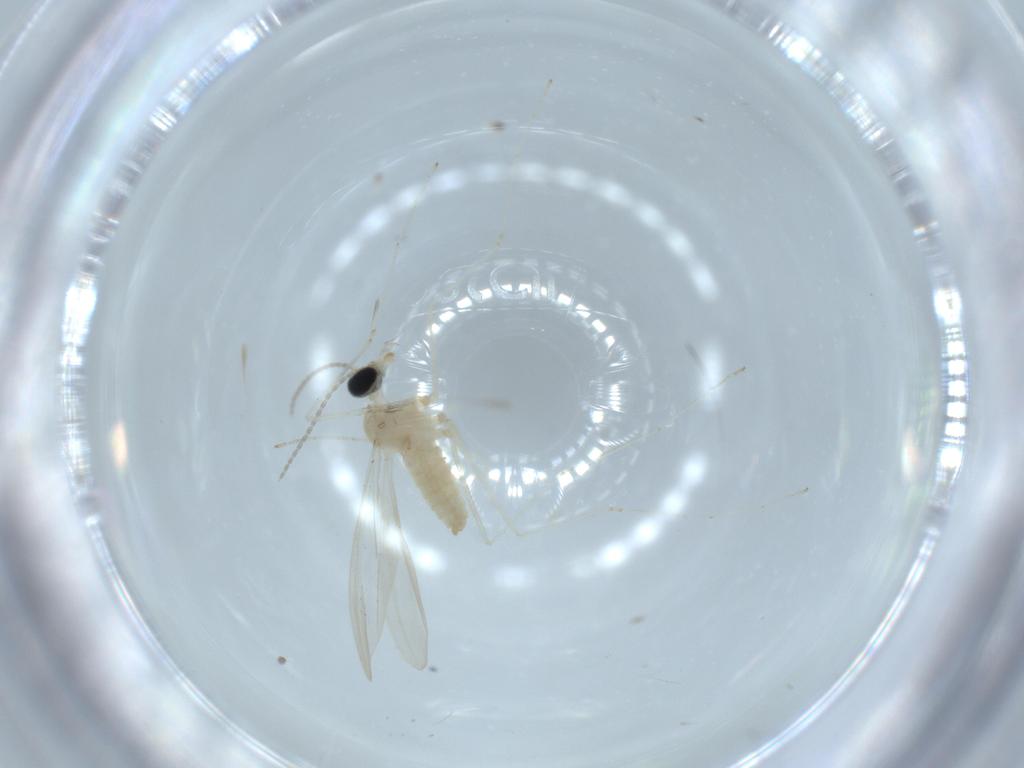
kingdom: Animalia
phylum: Arthropoda
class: Insecta
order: Diptera
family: Cecidomyiidae
